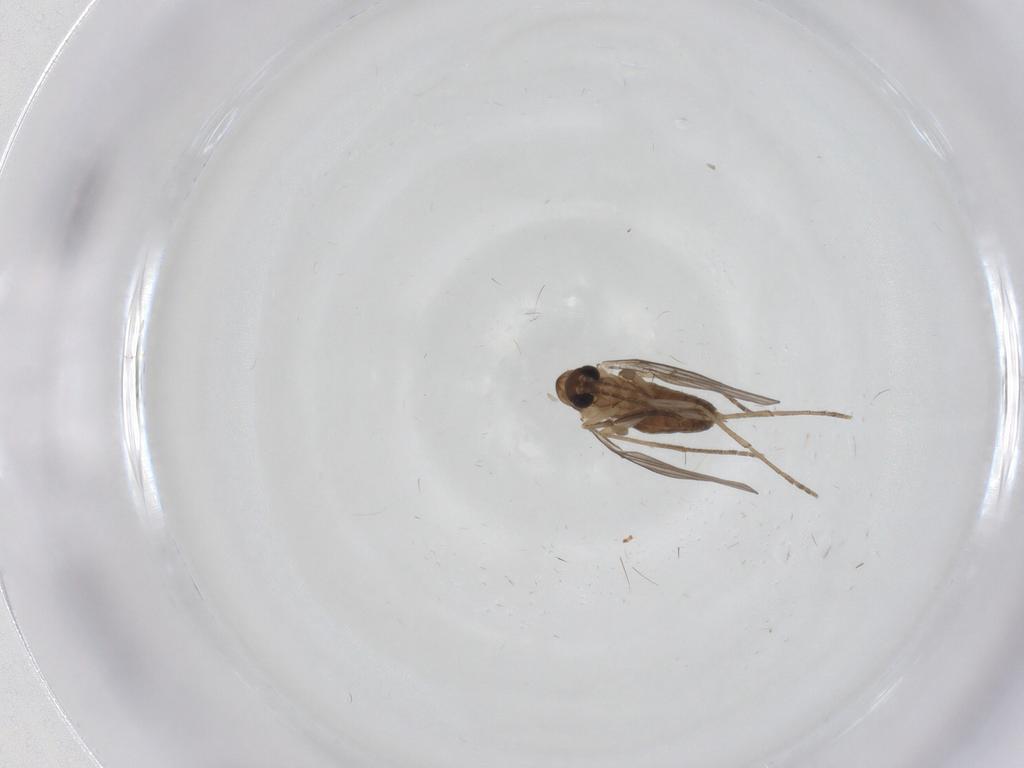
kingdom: Animalia
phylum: Arthropoda
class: Insecta
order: Diptera
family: Cecidomyiidae
